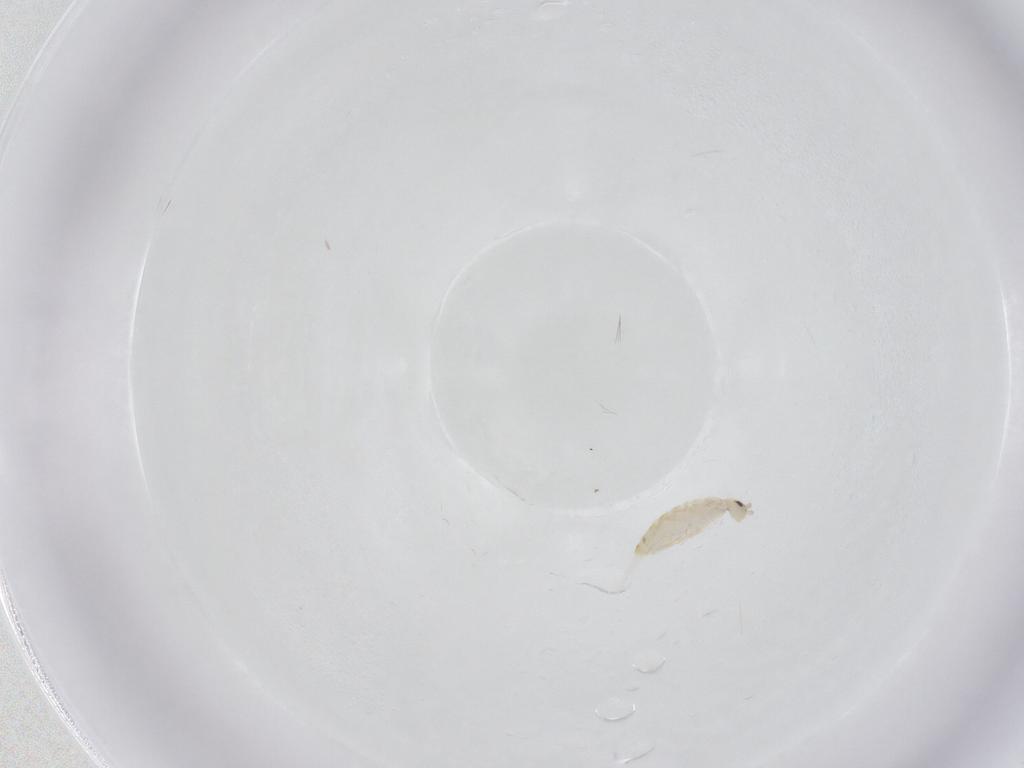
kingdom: Animalia
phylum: Arthropoda
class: Collembola
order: Entomobryomorpha
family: Entomobryidae
